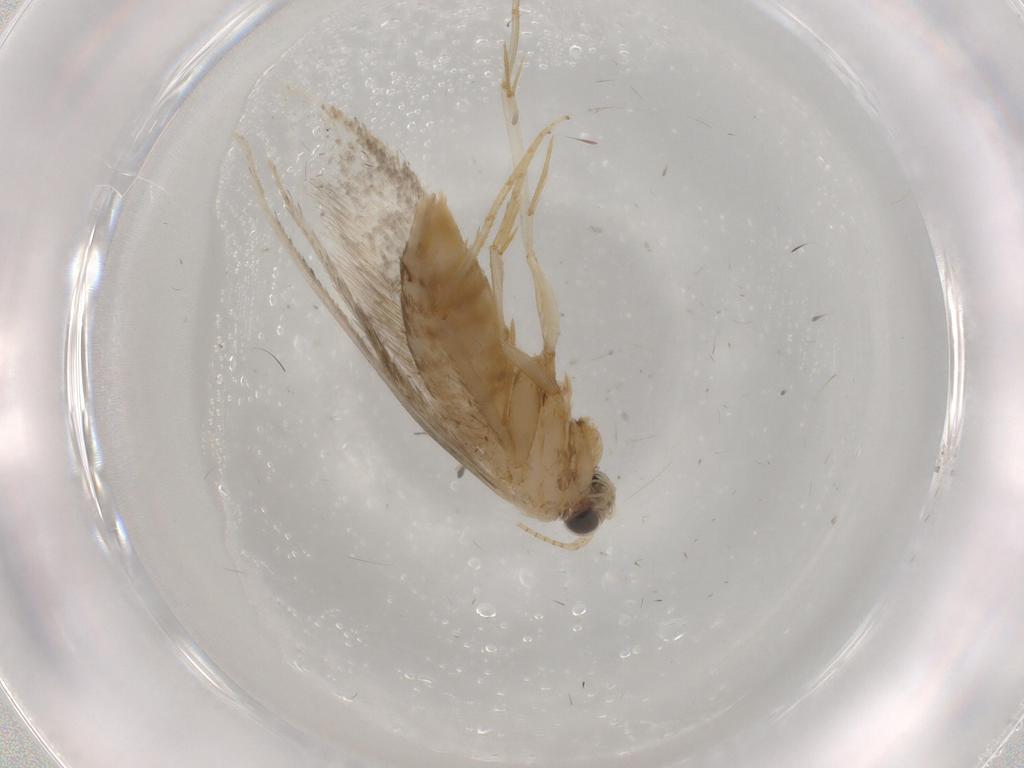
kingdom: Animalia
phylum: Arthropoda
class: Insecta
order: Lepidoptera
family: Tineidae
